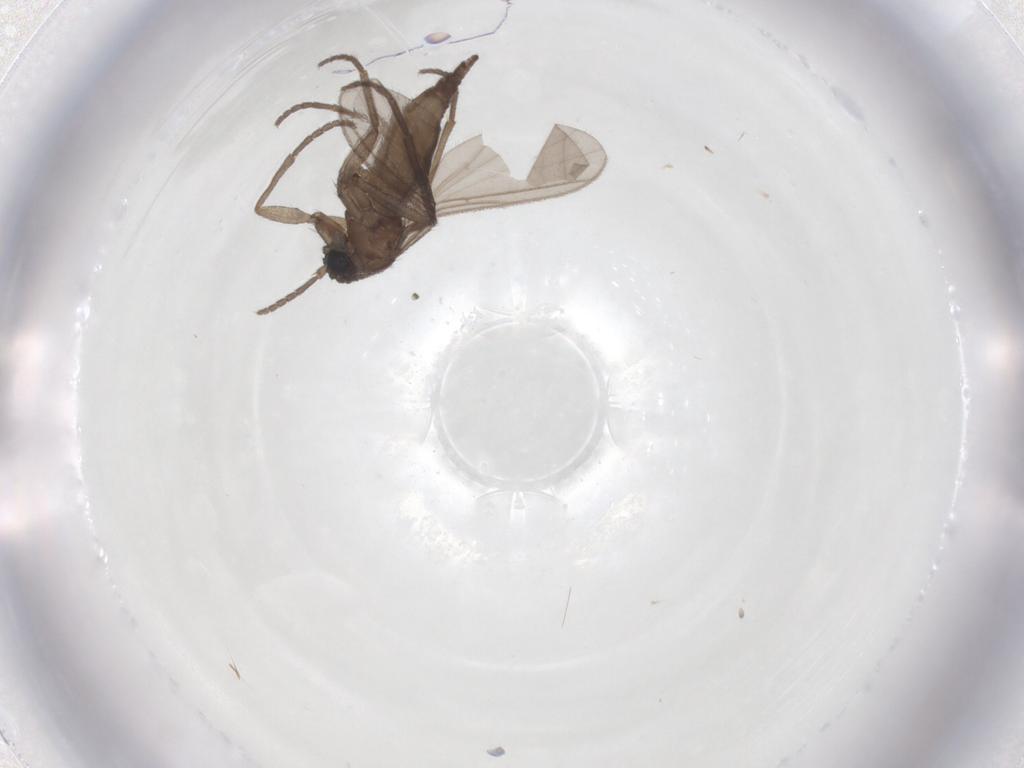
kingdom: Animalia
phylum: Arthropoda
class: Insecta
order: Diptera
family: Sciaridae
